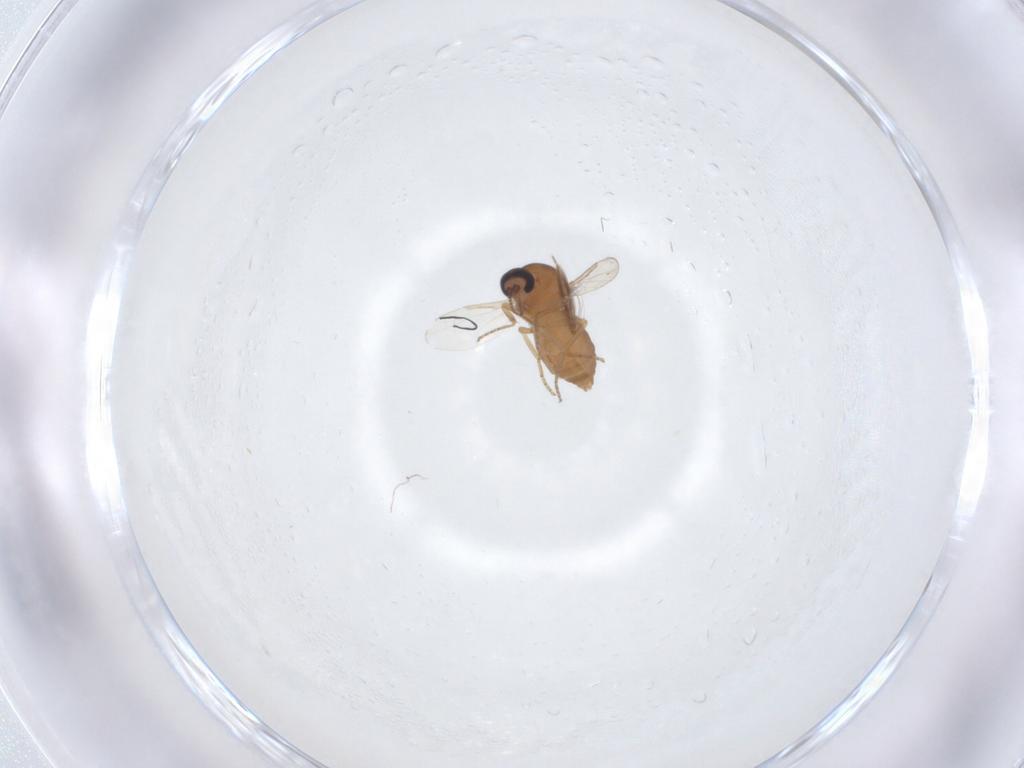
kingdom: Animalia
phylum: Arthropoda
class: Insecta
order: Diptera
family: Ceratopogonidae
